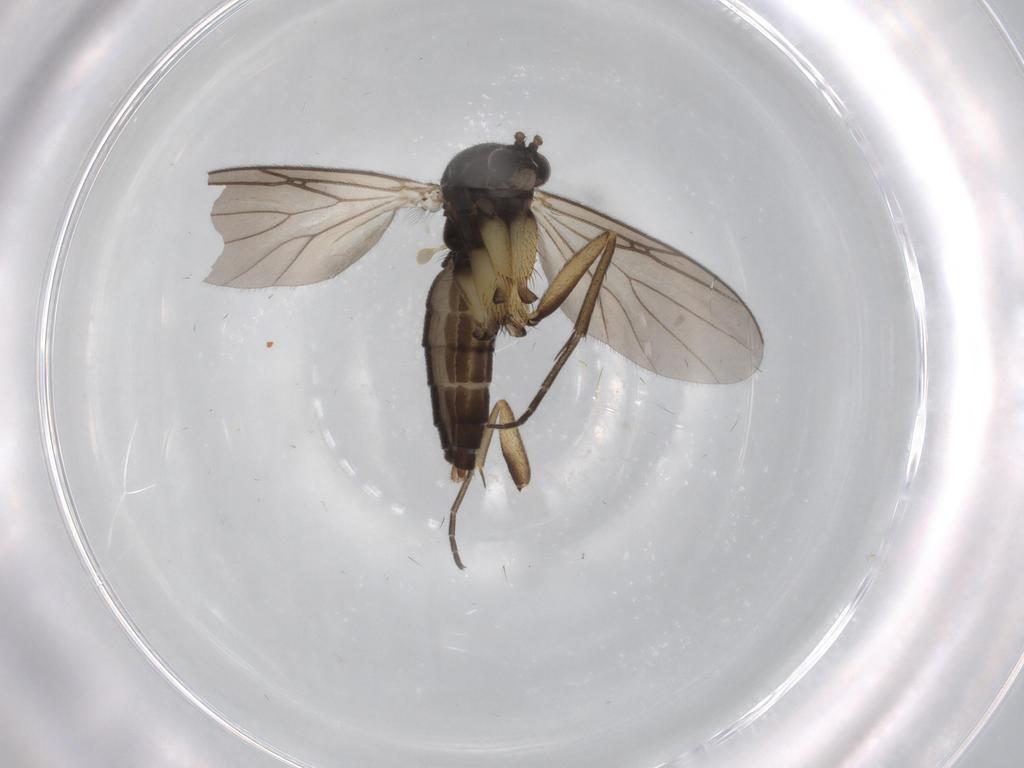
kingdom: Animalia
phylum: Arthropoda
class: Insecta
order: Diptera
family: Mycetophilidae
